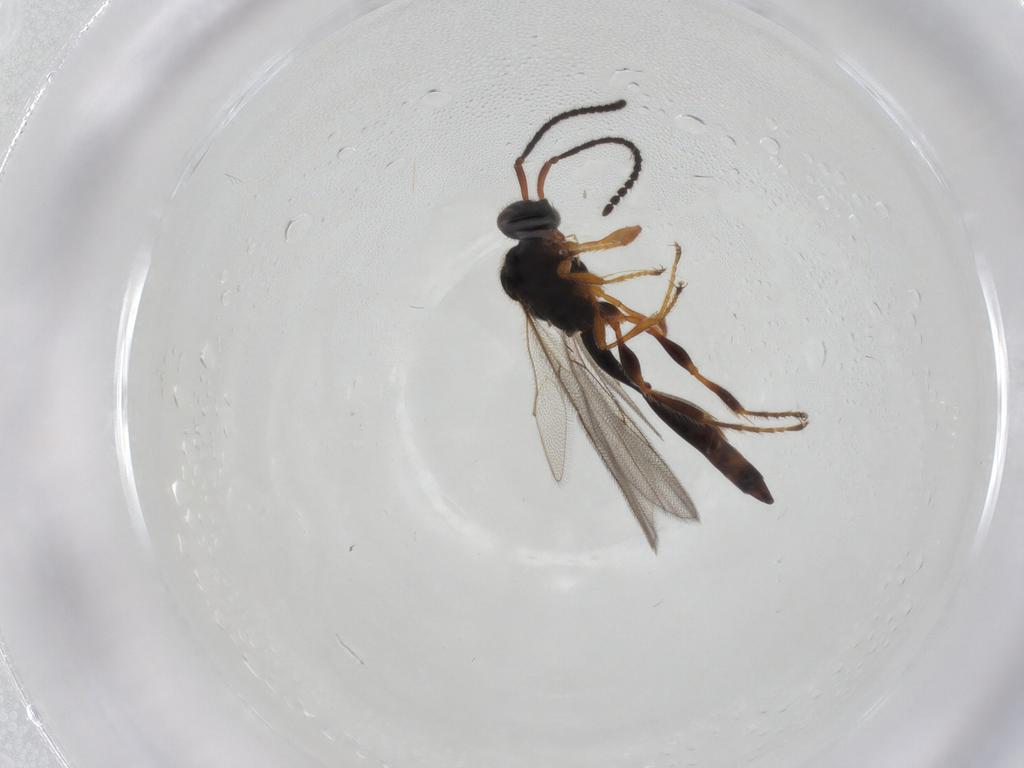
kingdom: Animalia
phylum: Arthropoda
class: Insecta
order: Hymenoptera
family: Diapriidae
